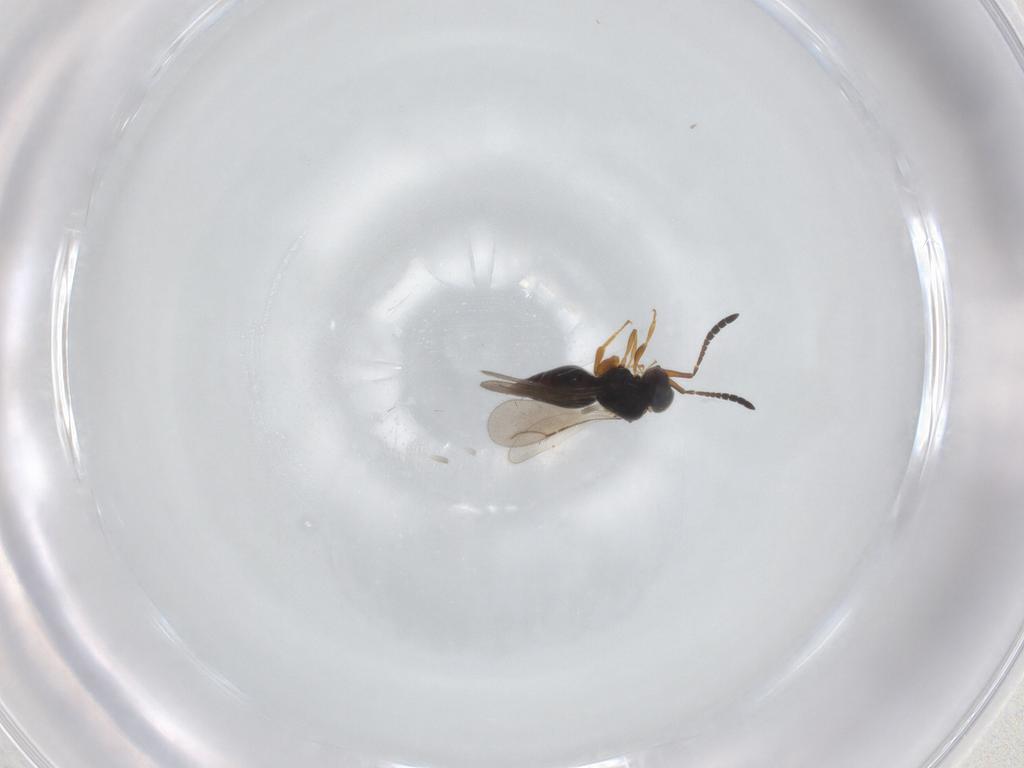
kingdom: Animalia
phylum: Arthropoda
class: Insecta
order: Hymenoptera
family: Ceraphronidae
